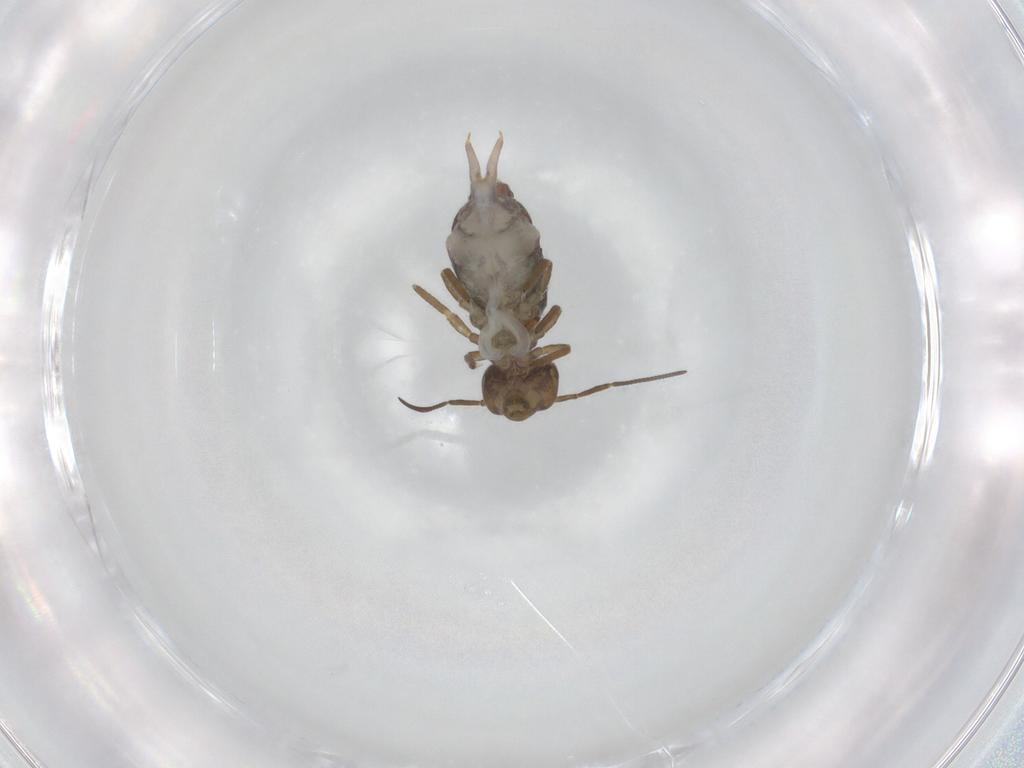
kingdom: Animalia
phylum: Arthropoda
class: Collembola
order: Symphypleona
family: Sminthuridae
